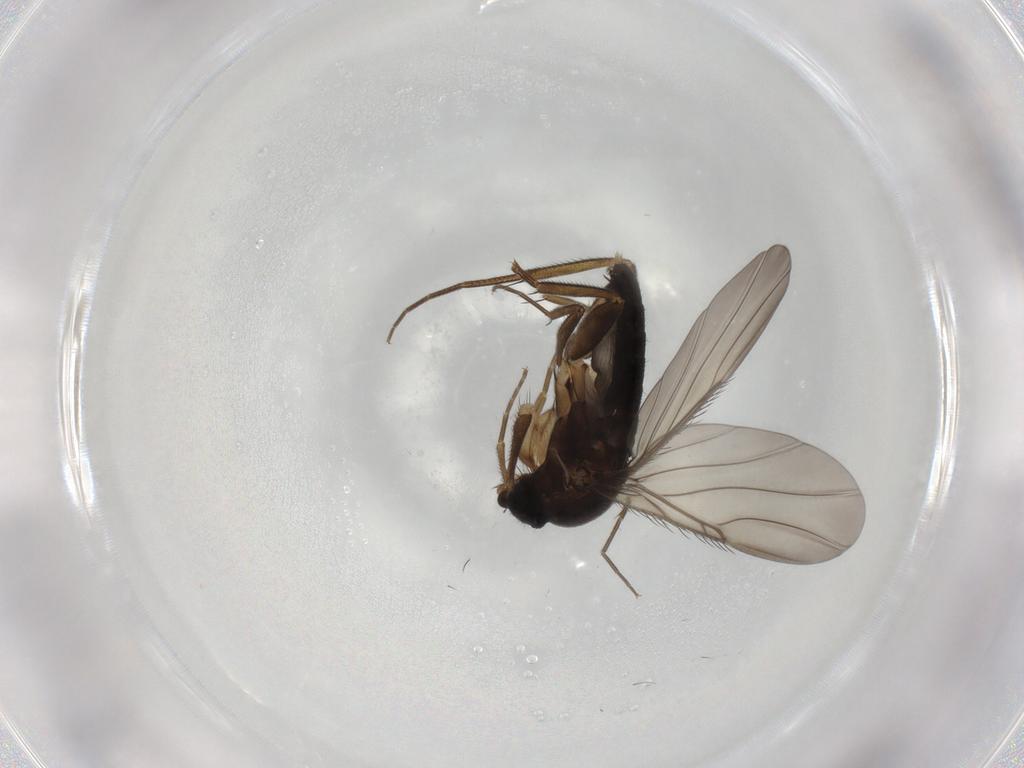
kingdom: Animalia
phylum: Arthropoda
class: Insecta
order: Diptera
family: Phoridae
